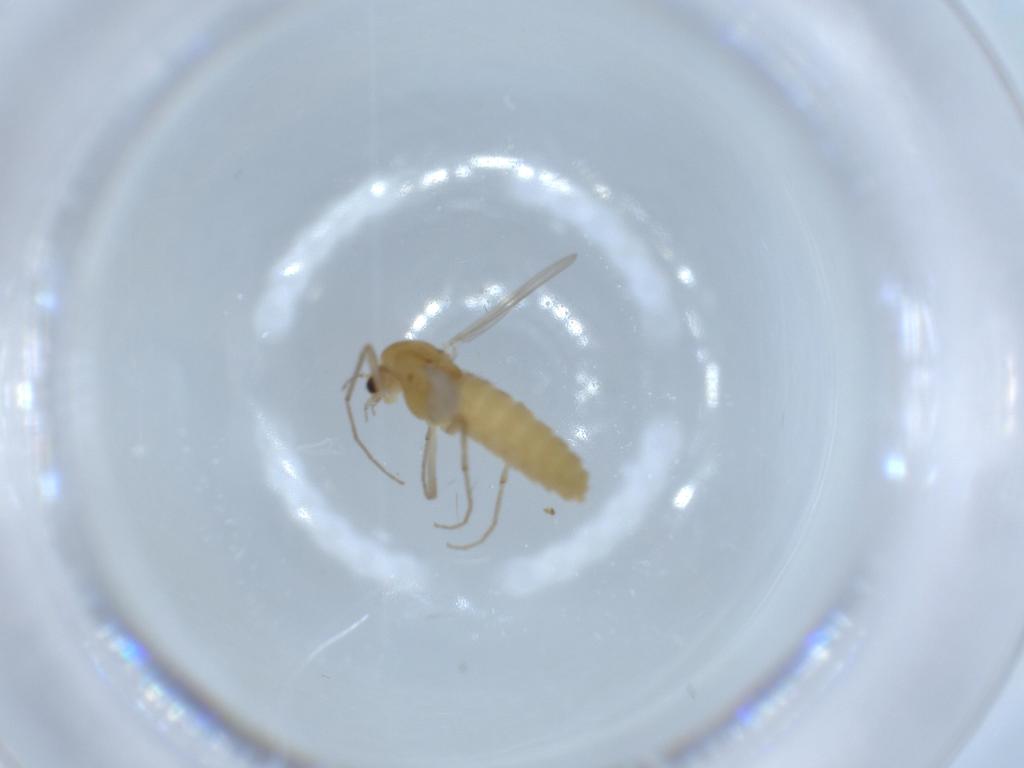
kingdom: Animalia
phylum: Arthropoda
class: Insecta
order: Diptera
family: Chironomidae
